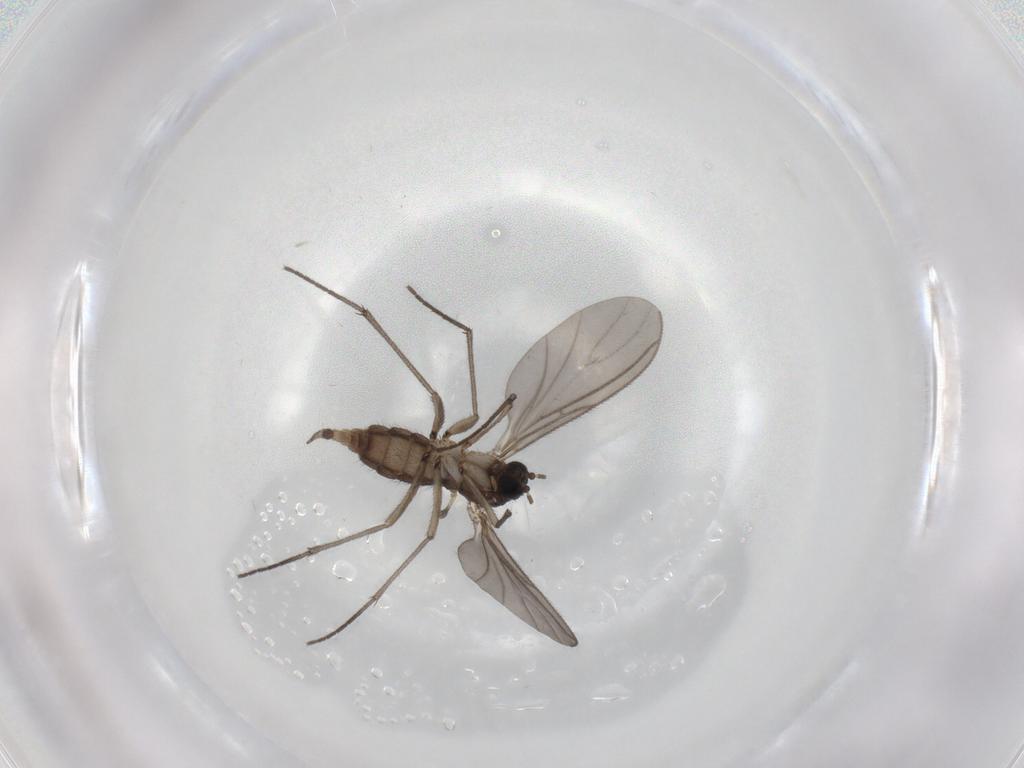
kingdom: Animalia
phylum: Arthropoda
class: Insecta
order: Diptera
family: Sciaridae
